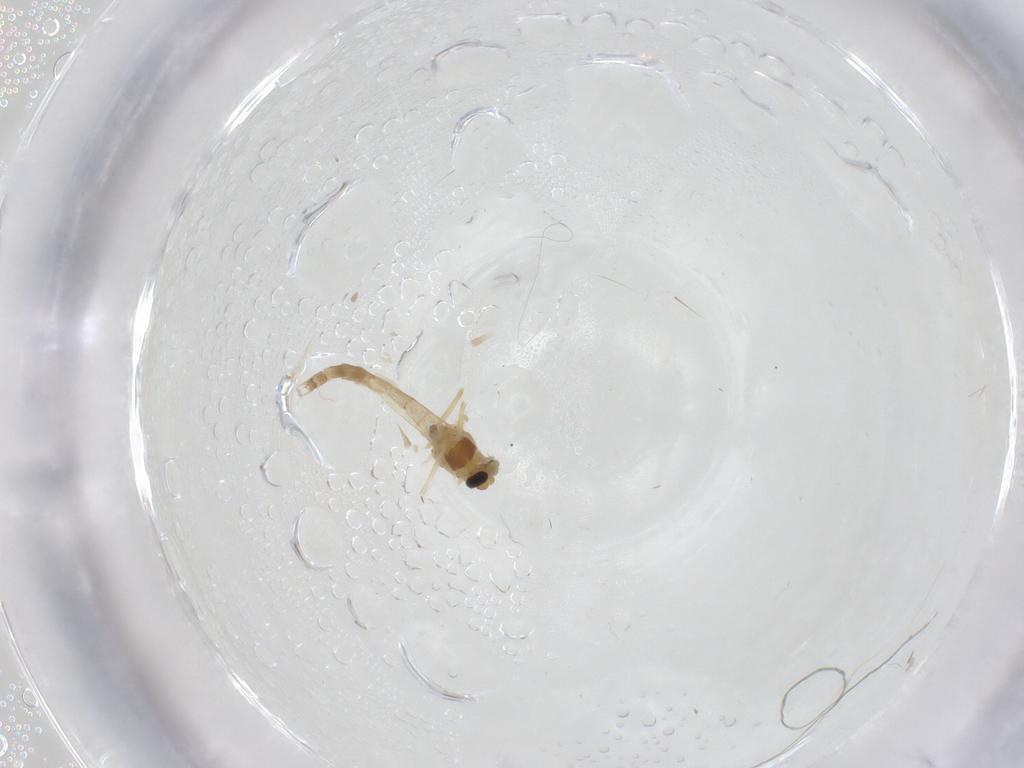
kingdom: Animalia
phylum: Arthropoda
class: Insecta
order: Diptera
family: Chironomidae
